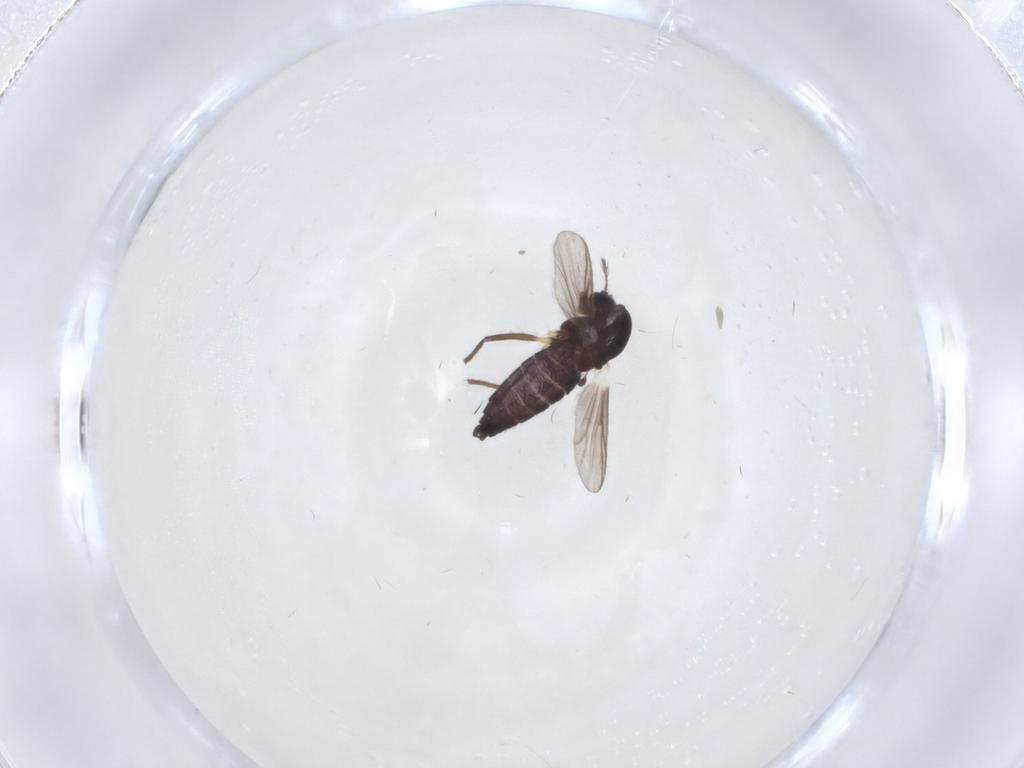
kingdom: Animalia
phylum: Arthropoda
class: Insecta
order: Diptera
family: Chironomidae
